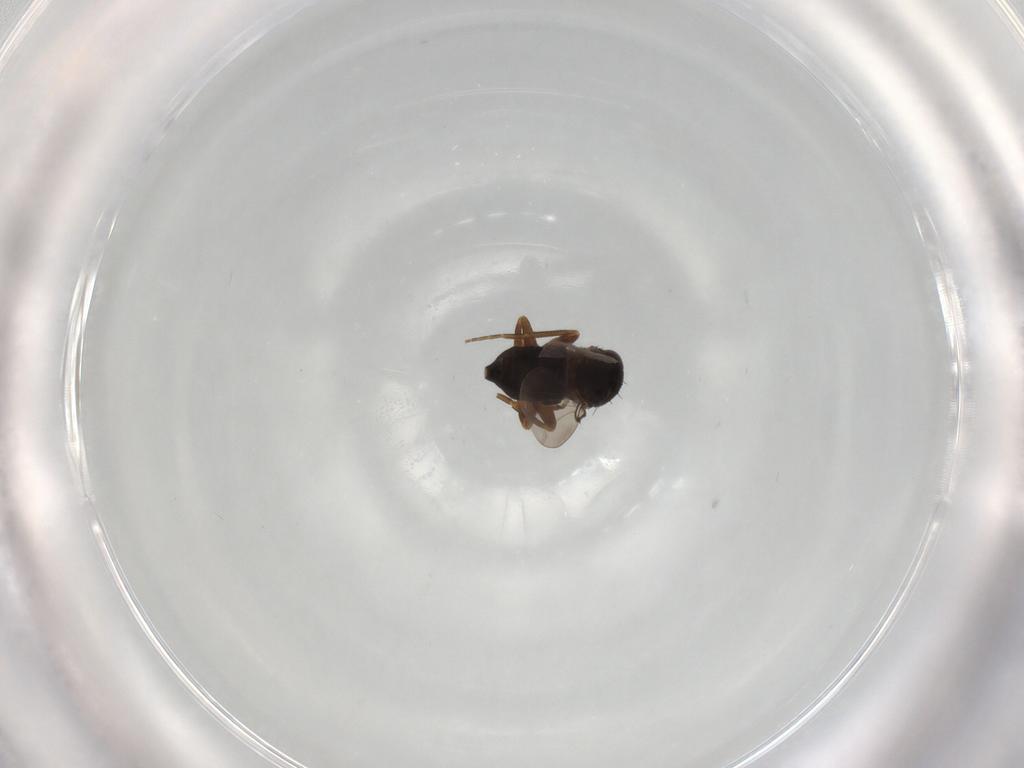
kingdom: Animalia
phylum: Arthropoda
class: Insecta
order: Diptera
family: Phoridae
